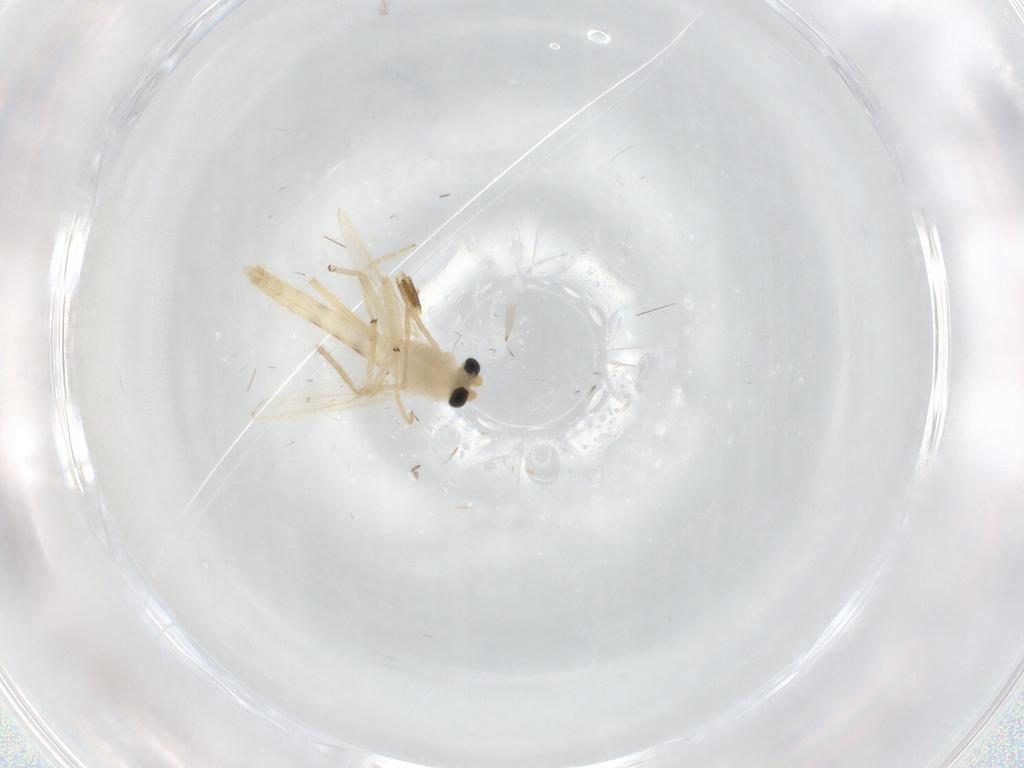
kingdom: Animalia
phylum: Arthropoda
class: Insecta
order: Diptera
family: Chironomidae
